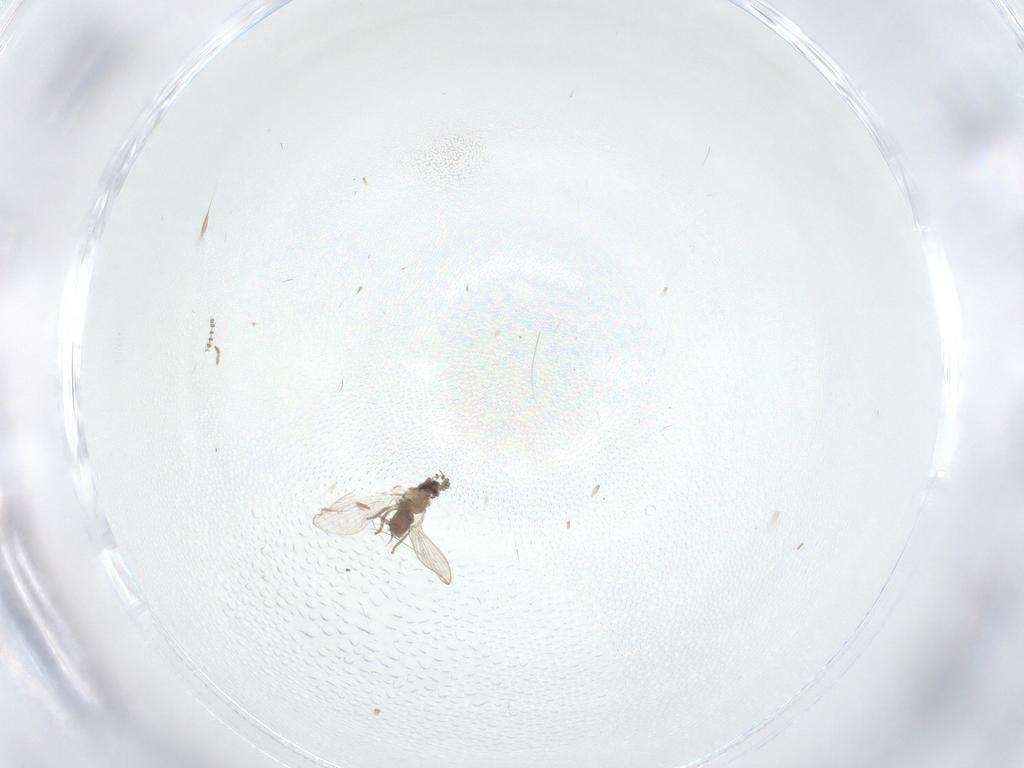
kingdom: Animalia
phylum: Arthropoda
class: Insecta
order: Diptera
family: Psychodidae
